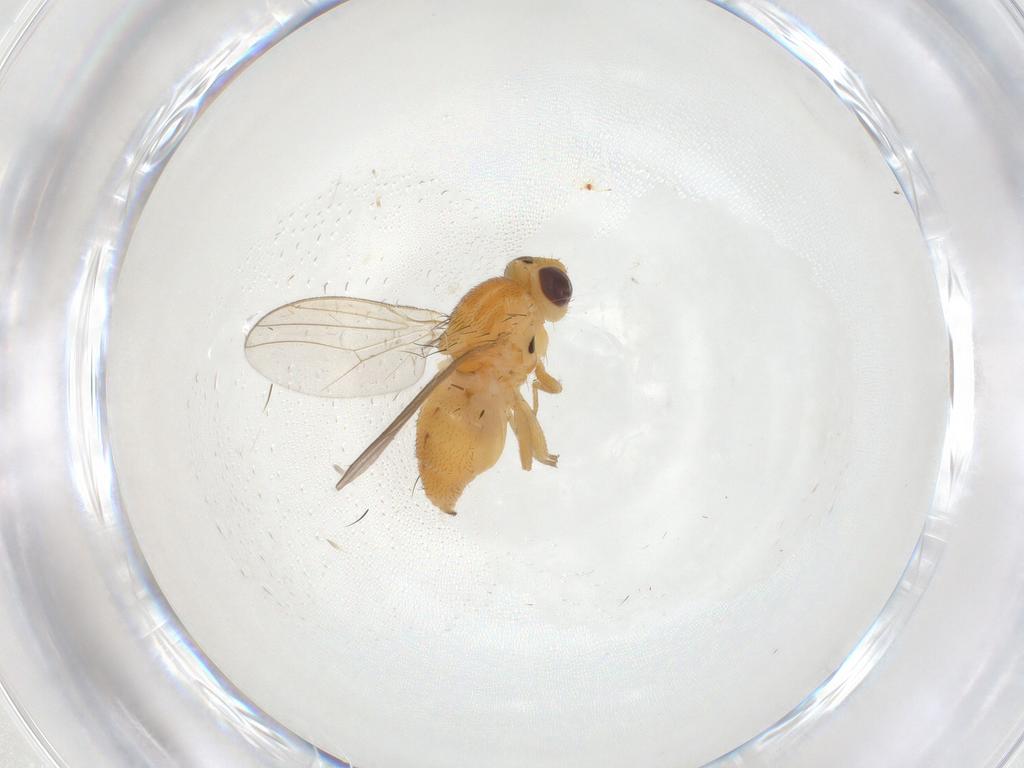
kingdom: Animalia
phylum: Arthropoda
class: Insecta
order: Diptera
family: Chloropidae
